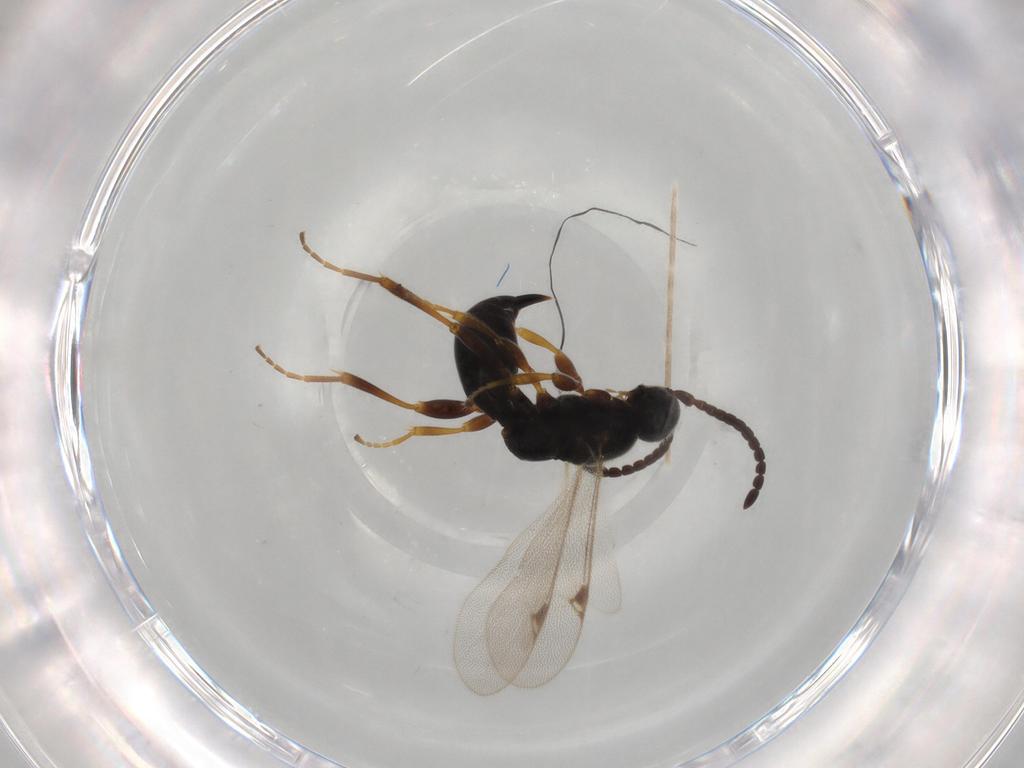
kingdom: Animalia
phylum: Arthropoda
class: Insecta
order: Hymenoptera
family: Proctotrupidae
